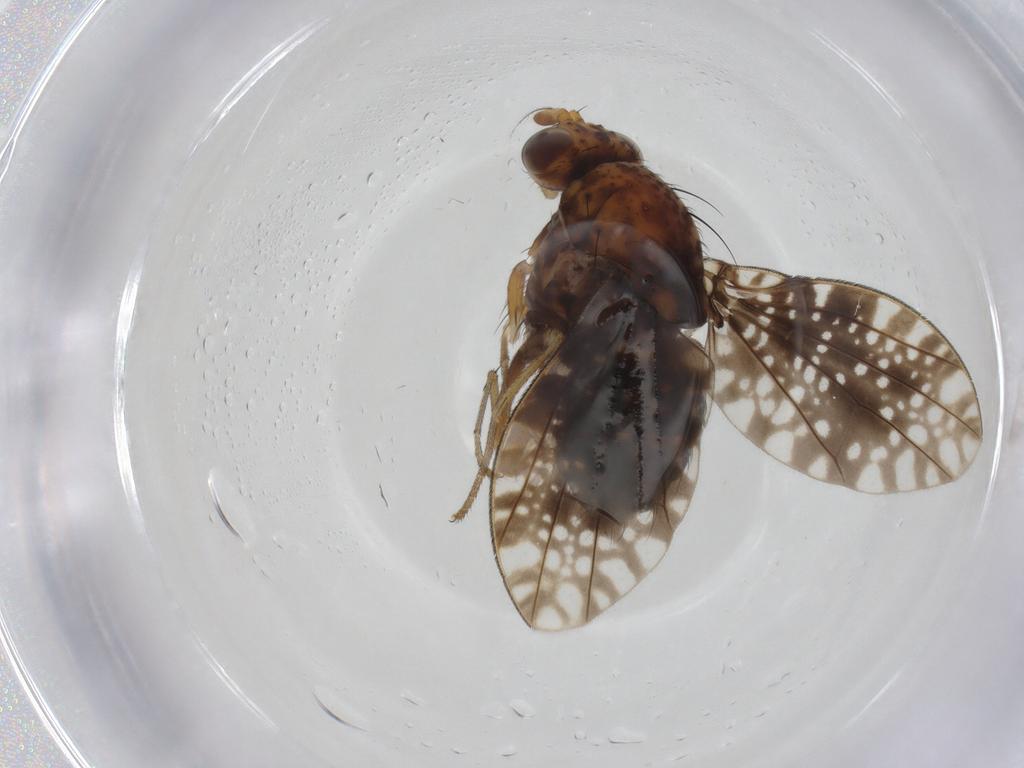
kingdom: Animalia
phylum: Arthropoda
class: Insecta
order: Diptera
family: Lauxaniidae
